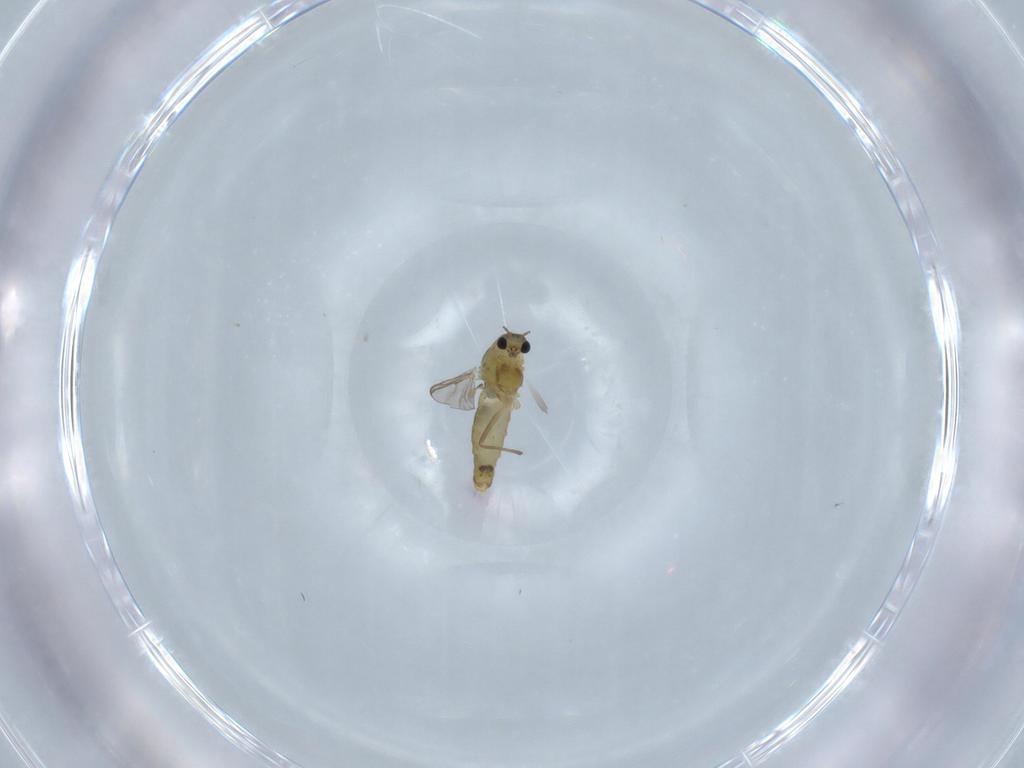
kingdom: Animalia
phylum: Arthropoda
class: Insecta
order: Diptera
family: Chironomidae
